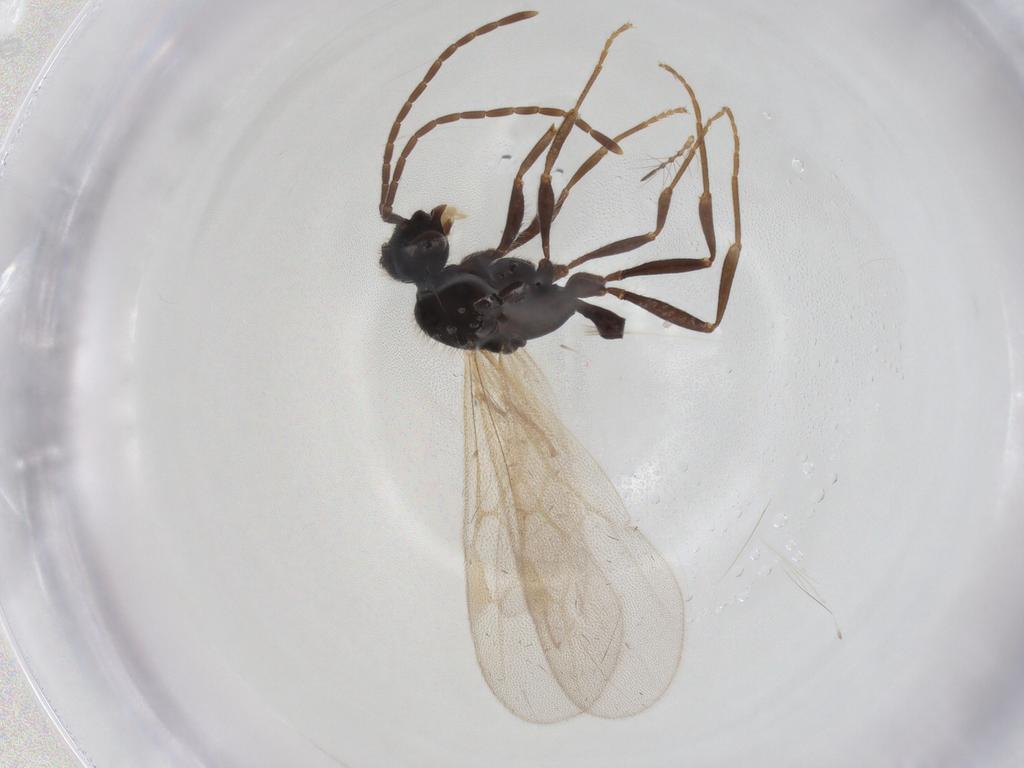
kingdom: Animalia
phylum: Arthropoda
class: Insecta
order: Hymenoptera
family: Formicidae
